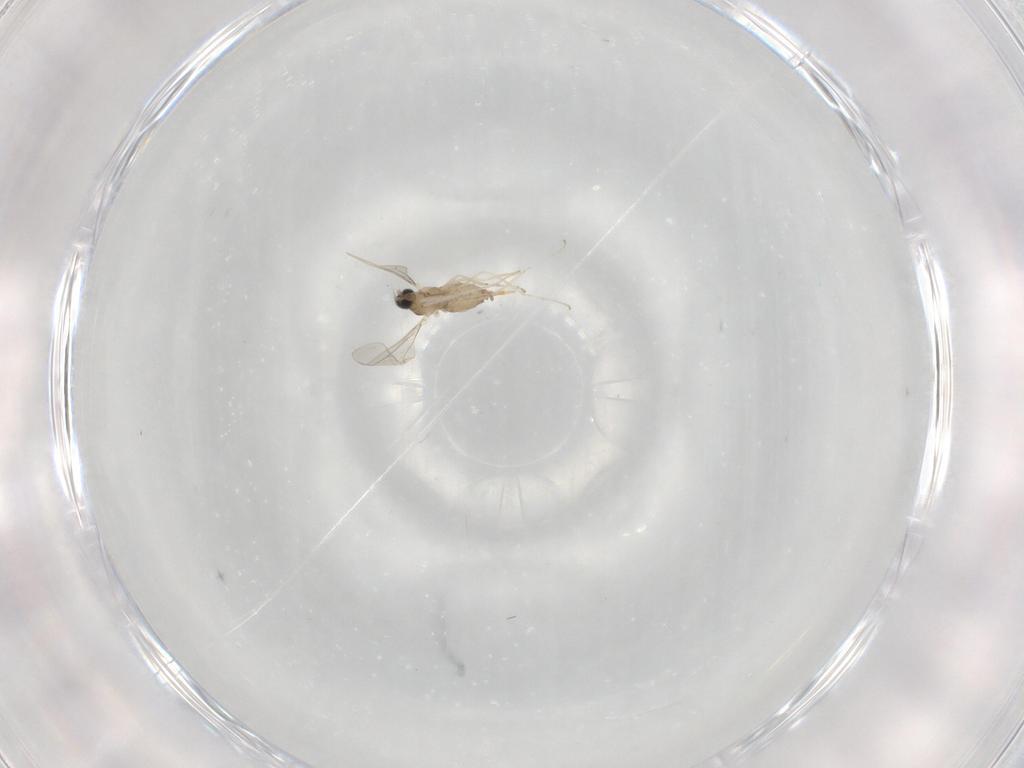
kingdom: Animalia
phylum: Arthropoda
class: Insecta
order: Diptera
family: Cecidomyiidae
